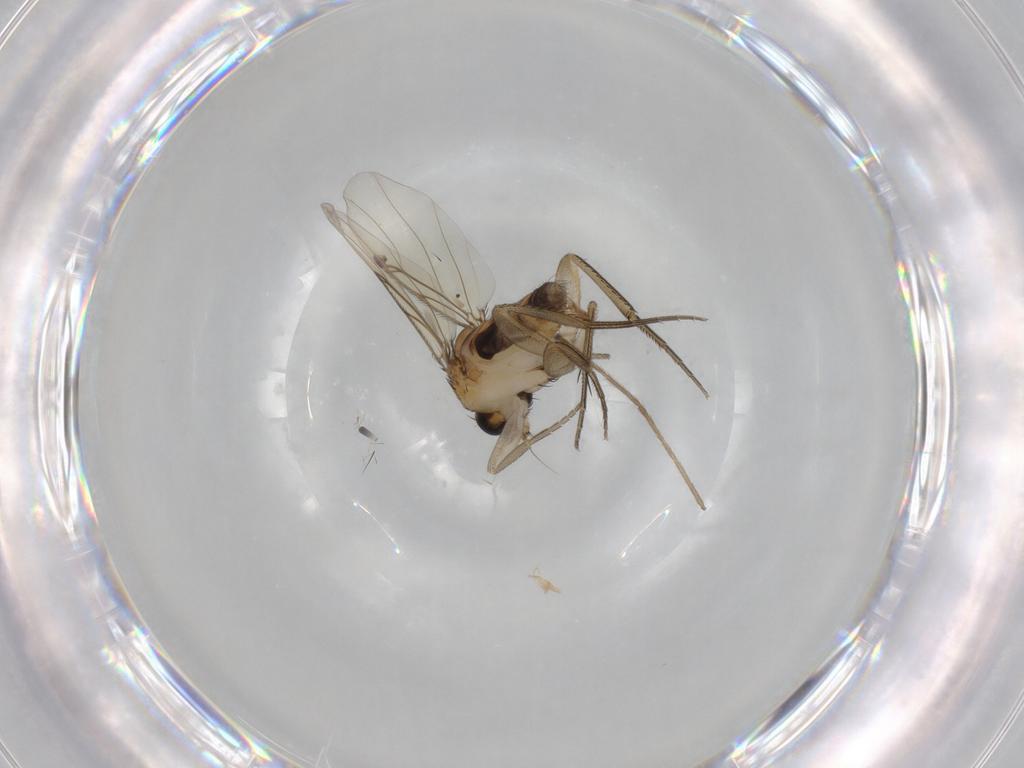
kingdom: Animalia
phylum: Arthropoda
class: Insecta
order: Diptera
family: Phoridae
